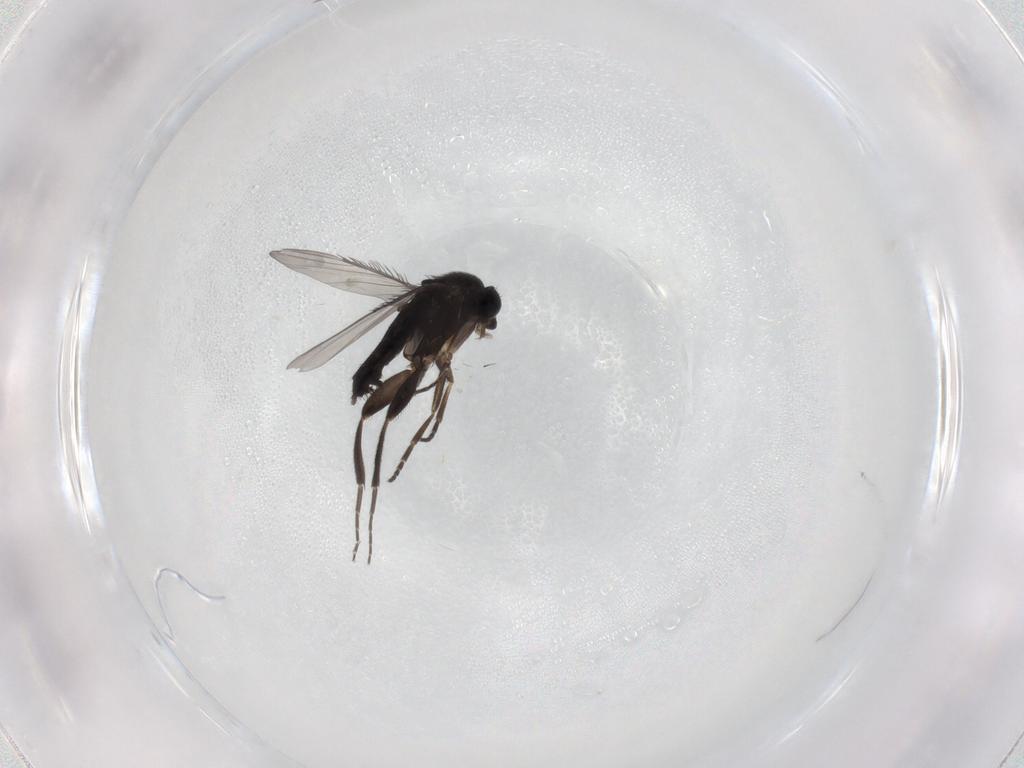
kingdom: Animalia
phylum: Arthropoda
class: Insecta
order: Diptera
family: Phoridae
